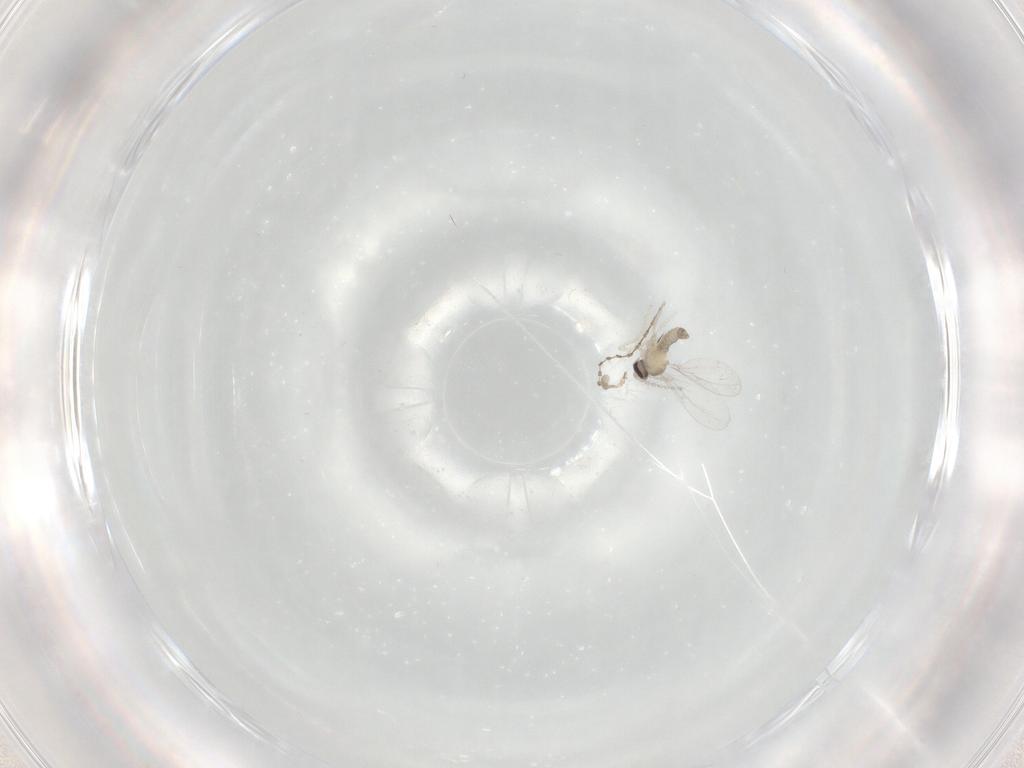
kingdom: Animalia
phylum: Arthropoda
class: Insecta
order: Diptera
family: Cecidomyiidae
